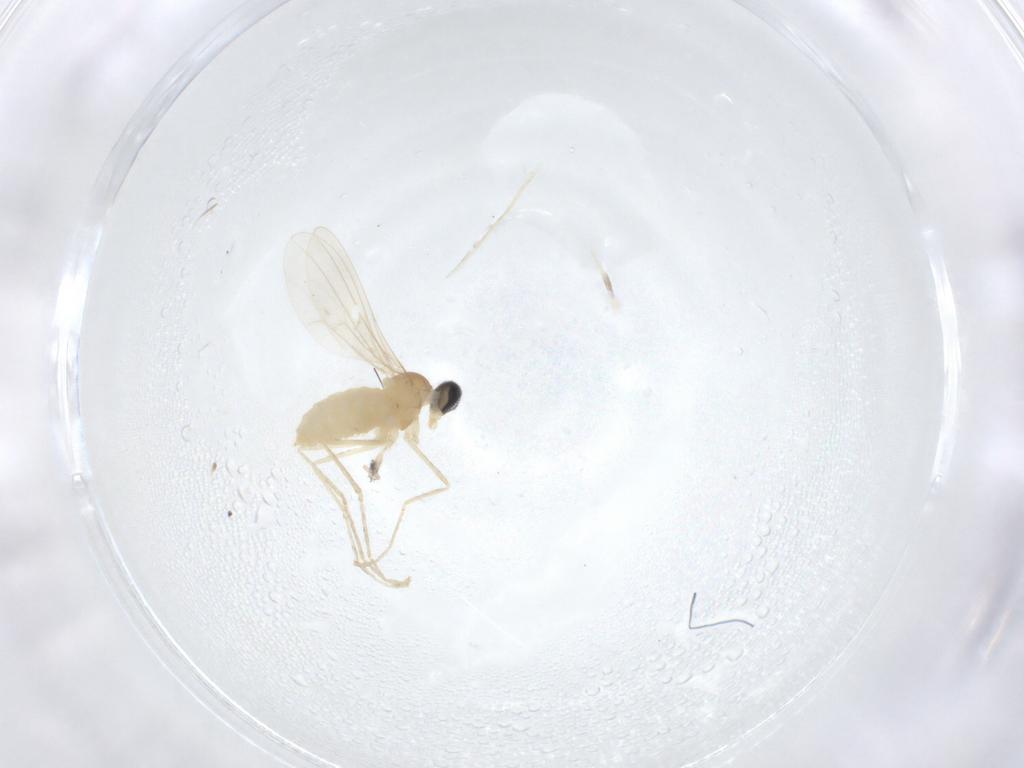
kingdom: Animalia
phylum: Arthropoda
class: Insecta
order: Diptera
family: Cecidomyiidae
